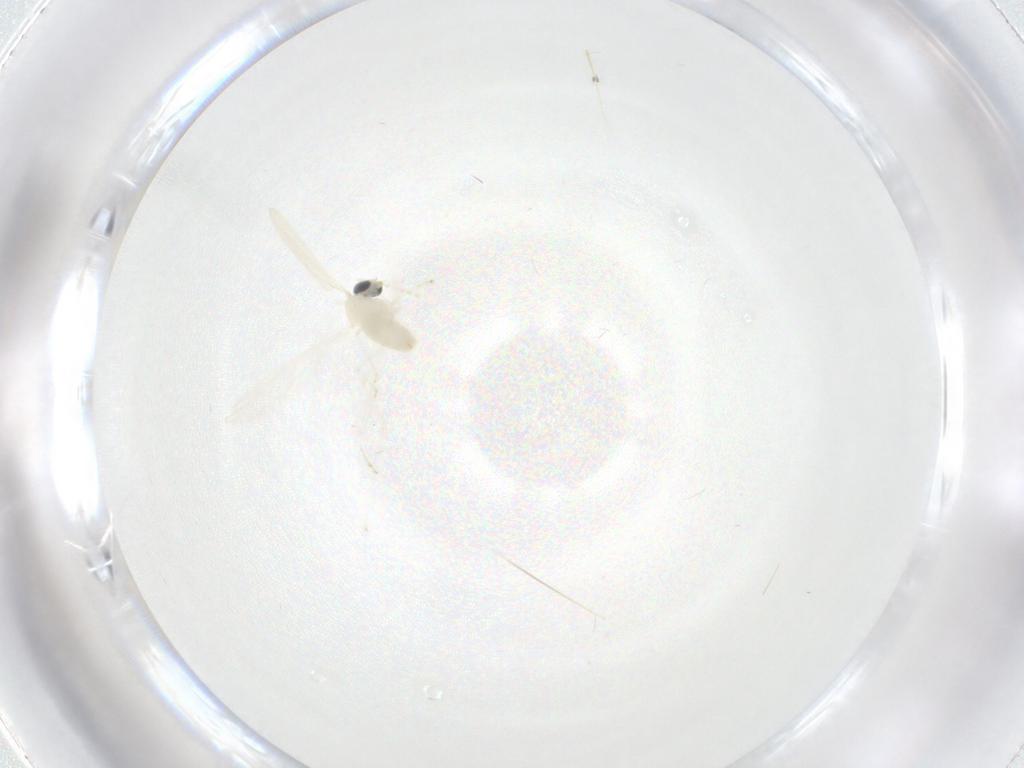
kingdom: Animalia
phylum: Arthropoda
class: Insecta
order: Diptera
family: Cecidomyiidae
